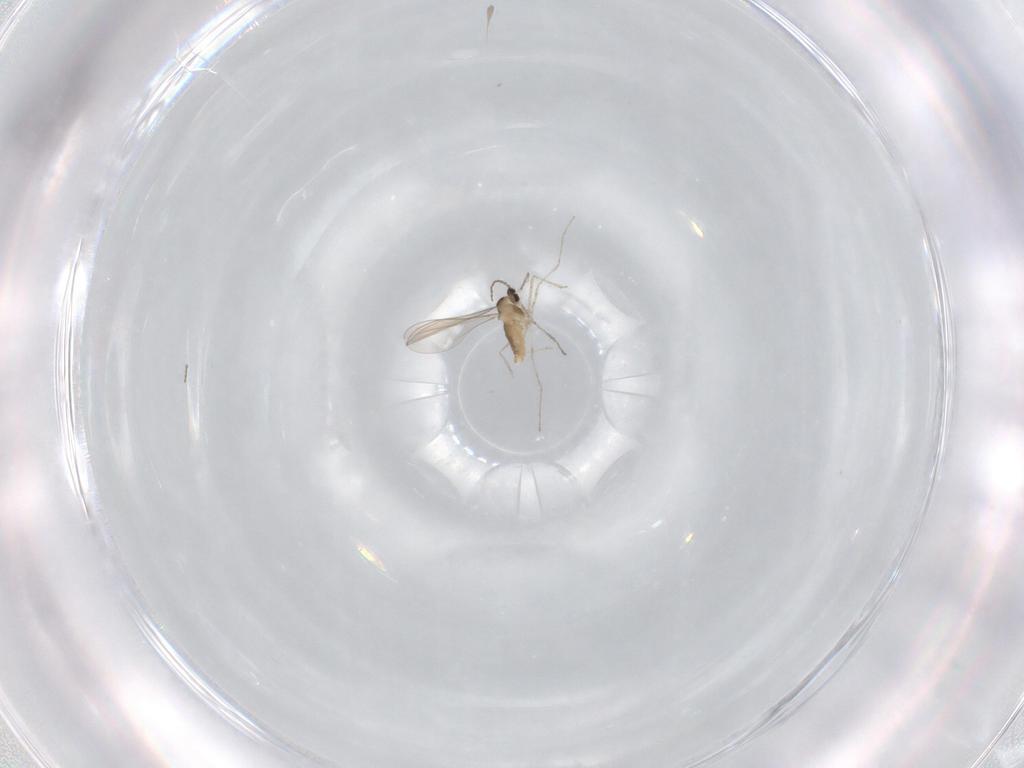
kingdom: Animalia
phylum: Arthropoda
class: Insecta
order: Diptera
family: Cecidomyiidae
